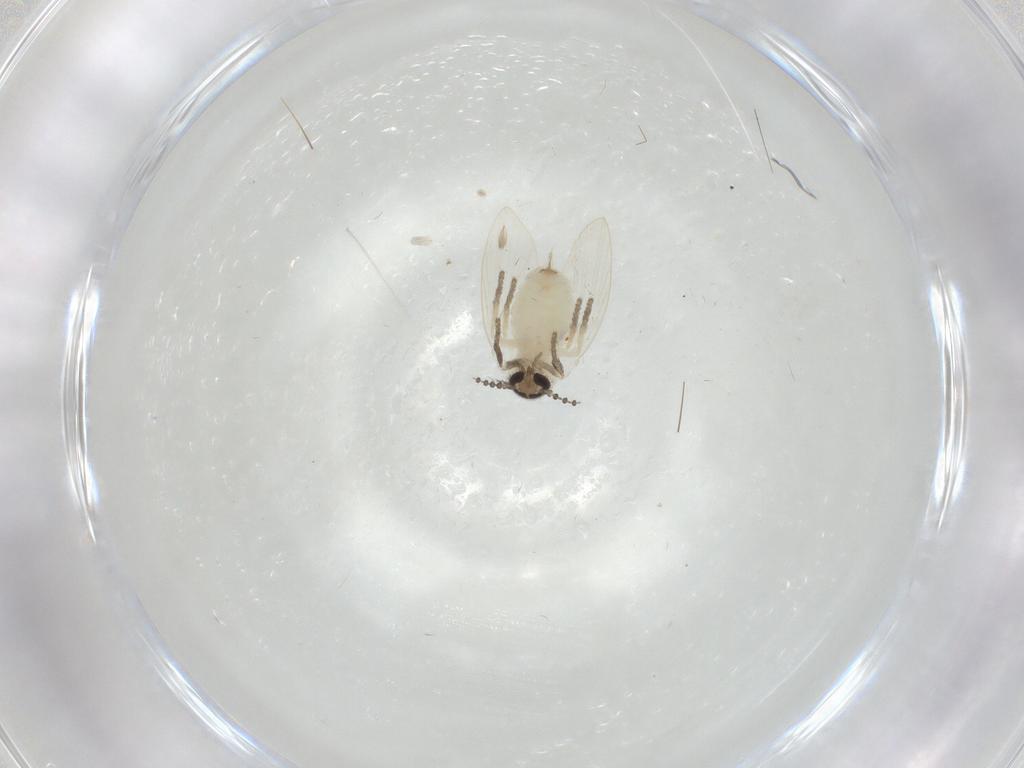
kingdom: Animalia
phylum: Arthropoda
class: Insecta
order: Diptera
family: Psychodidae
